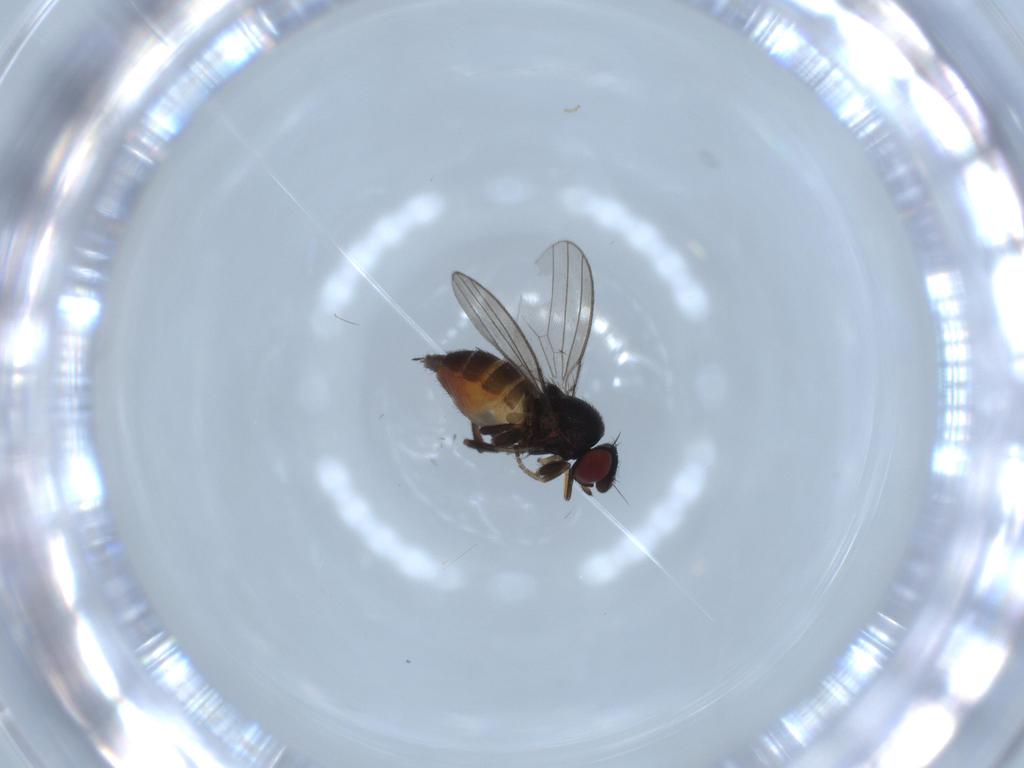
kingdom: Animalia
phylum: Arthropoda
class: Insecta
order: Diptera
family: Milichiidae
